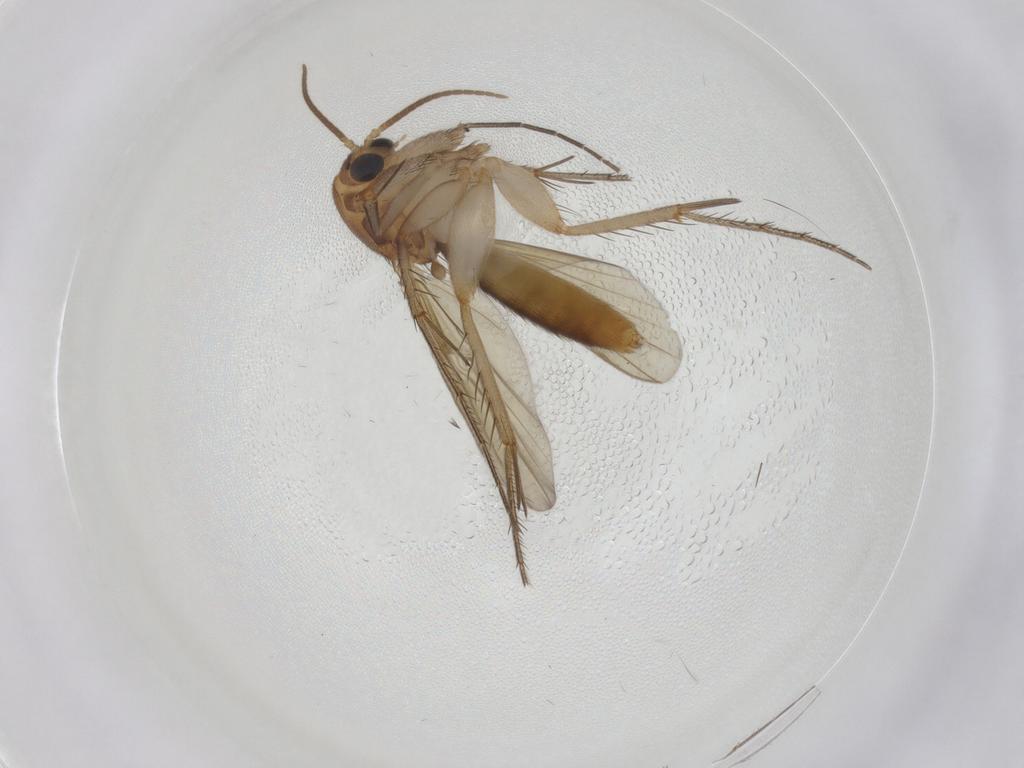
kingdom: Animalia
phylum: Arthropoda
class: Insecta
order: Diptera
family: Mycetophilidae
